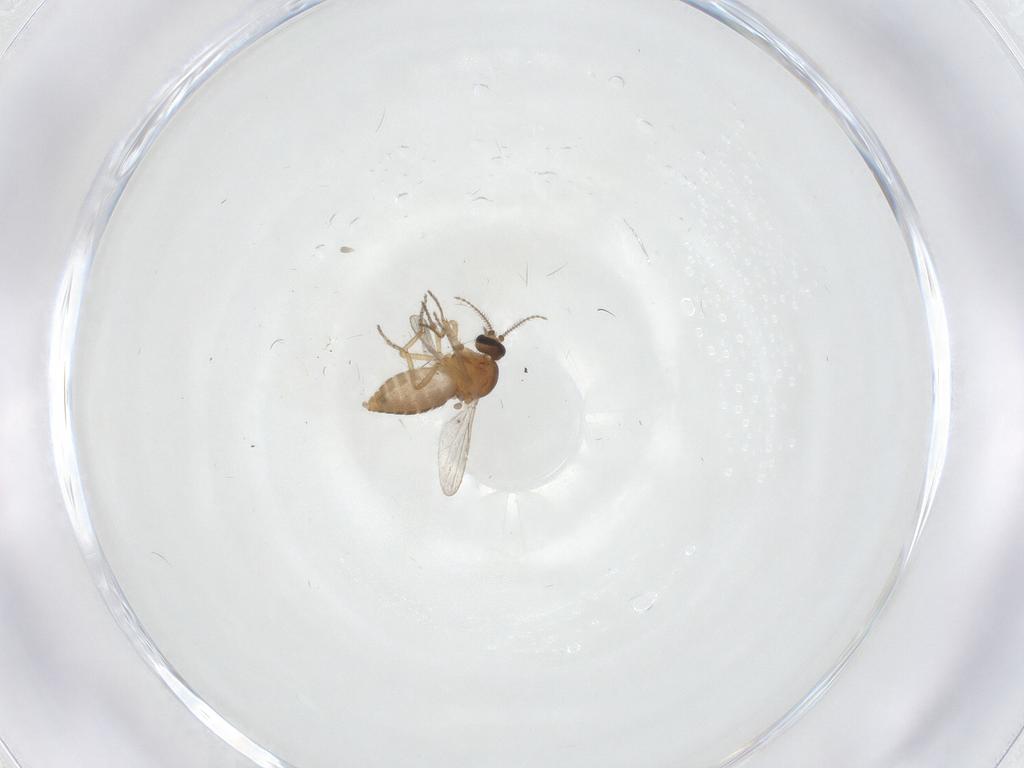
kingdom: Animalia
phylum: Arthropoda
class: Insecta
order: Diptera
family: Ceratopogonidae
